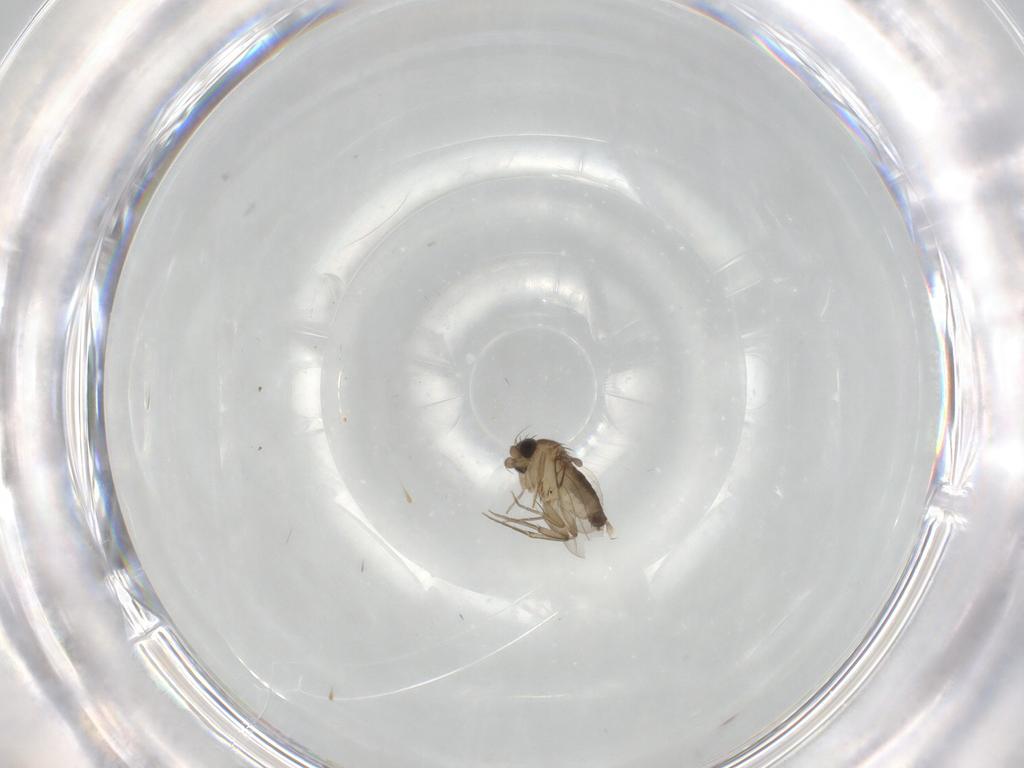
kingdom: Animalia
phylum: Arthropoda
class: Insecta
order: Diptera
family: Phoridae
